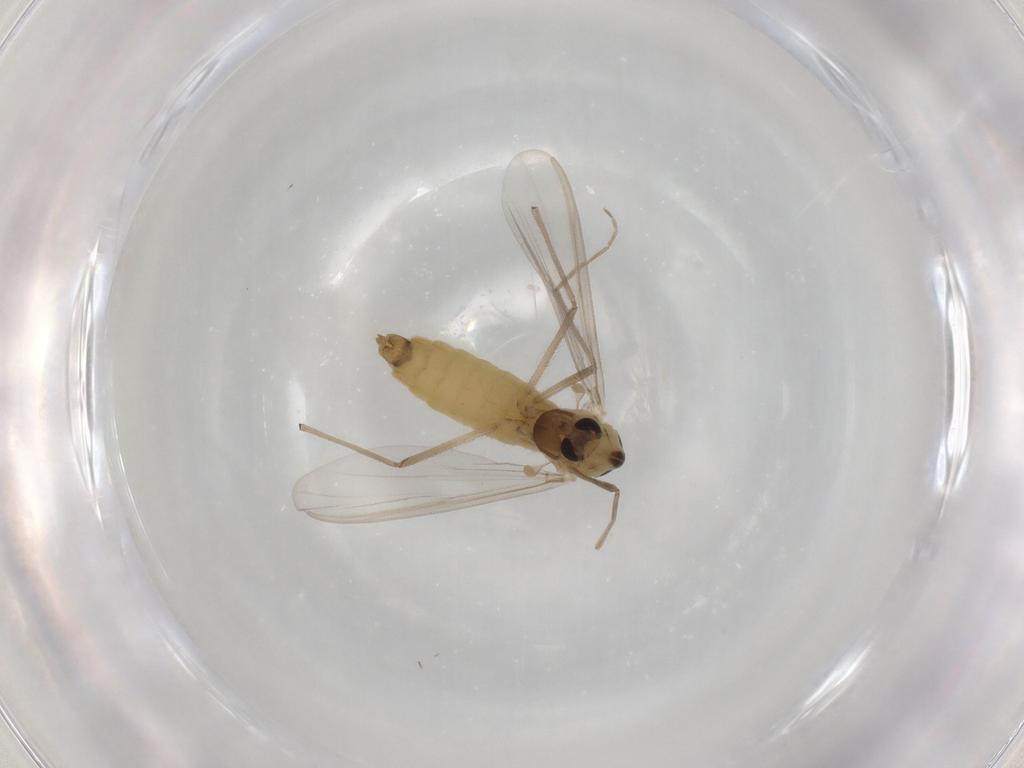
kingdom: Animalia
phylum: Arthropoda
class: Insecta
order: Diptera
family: Chironomidae
